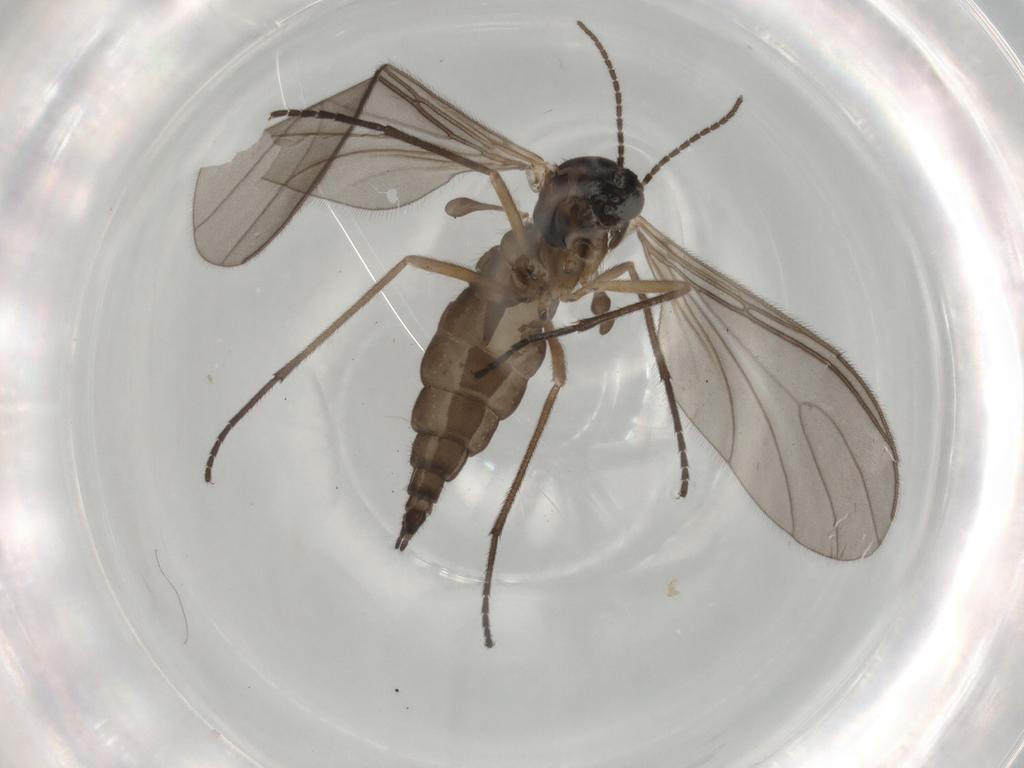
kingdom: Animalia
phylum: Arthropoda
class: Insecta
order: Diptera
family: Sciaridae
